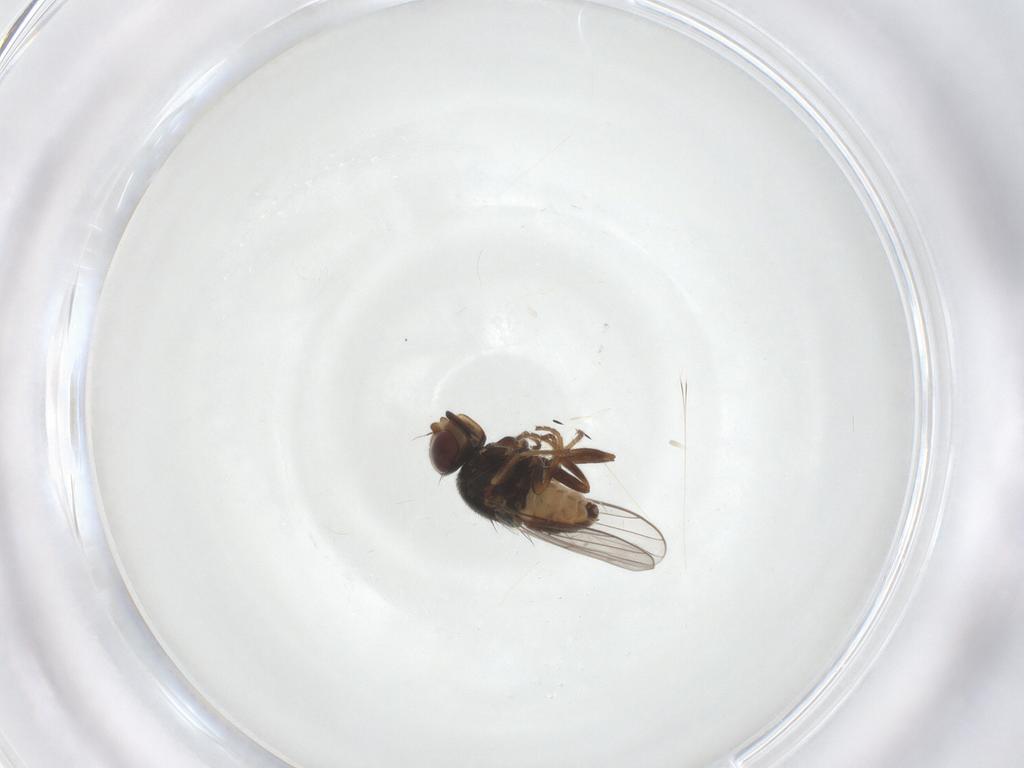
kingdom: Animalia
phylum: Arthropoda
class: Insecta
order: Diptera
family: Chloropidae
